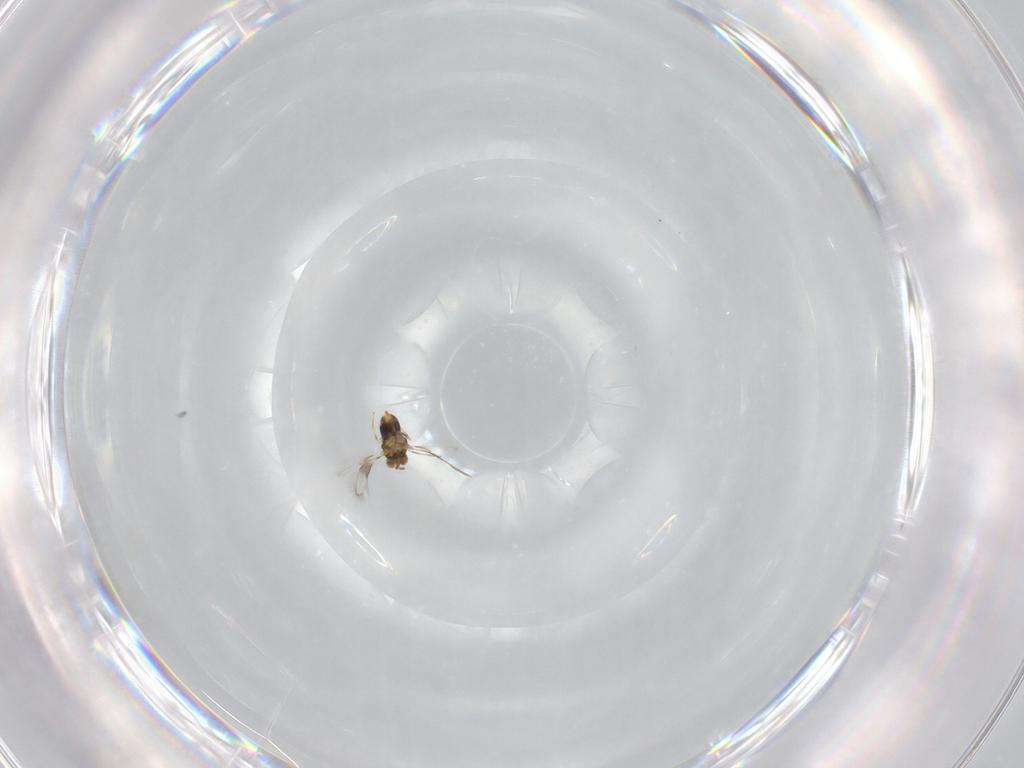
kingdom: Animalia
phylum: Arthropoda
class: Insecta
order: Hymenoptera
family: Aphelinidae
